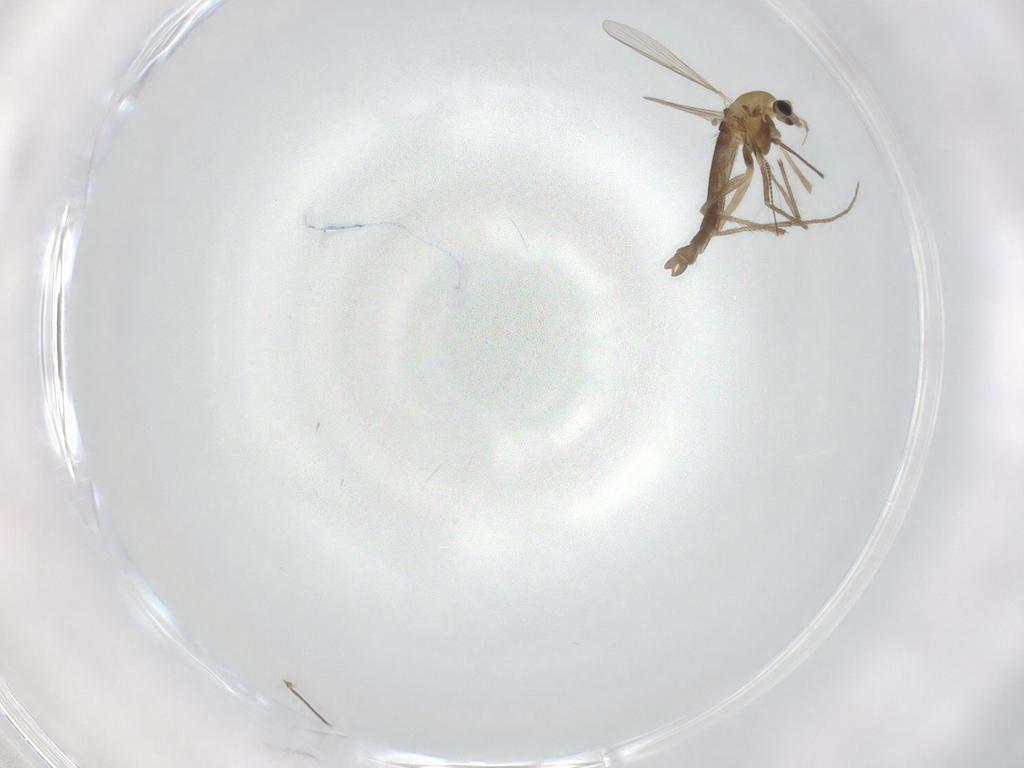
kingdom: Animalia
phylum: Arthropoda
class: Insecta
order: Diptera
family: Chironomidae
